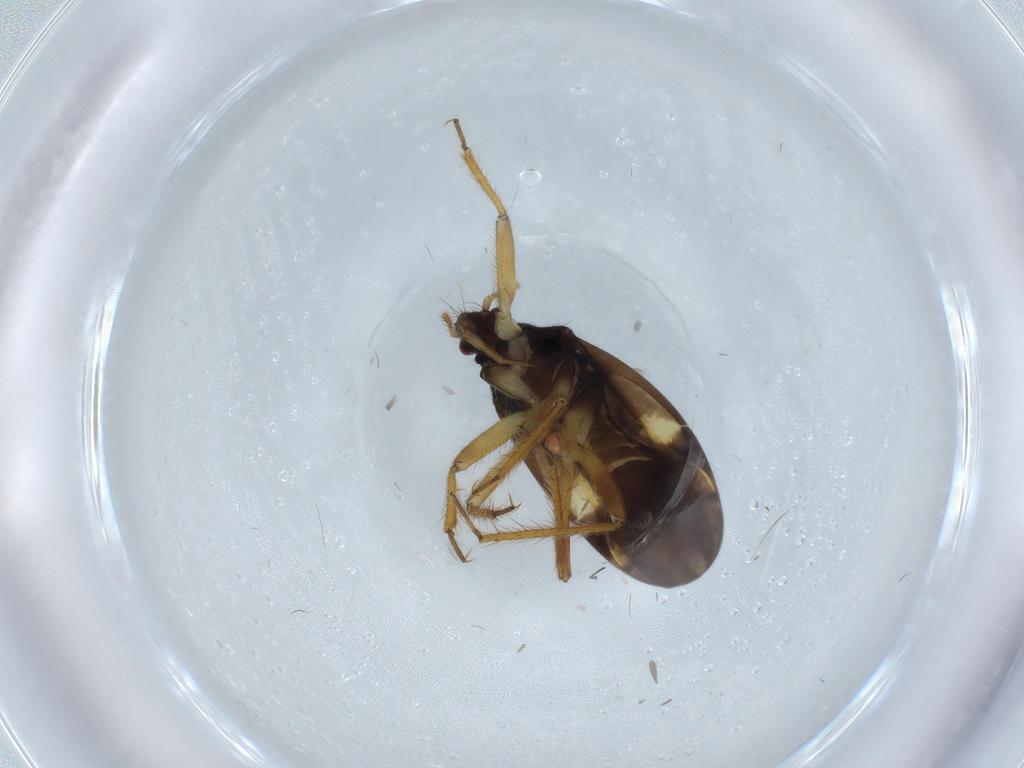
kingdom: Animalia
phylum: Arthropoda
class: Insecta
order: Hemiptera
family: Ceratocombidae
